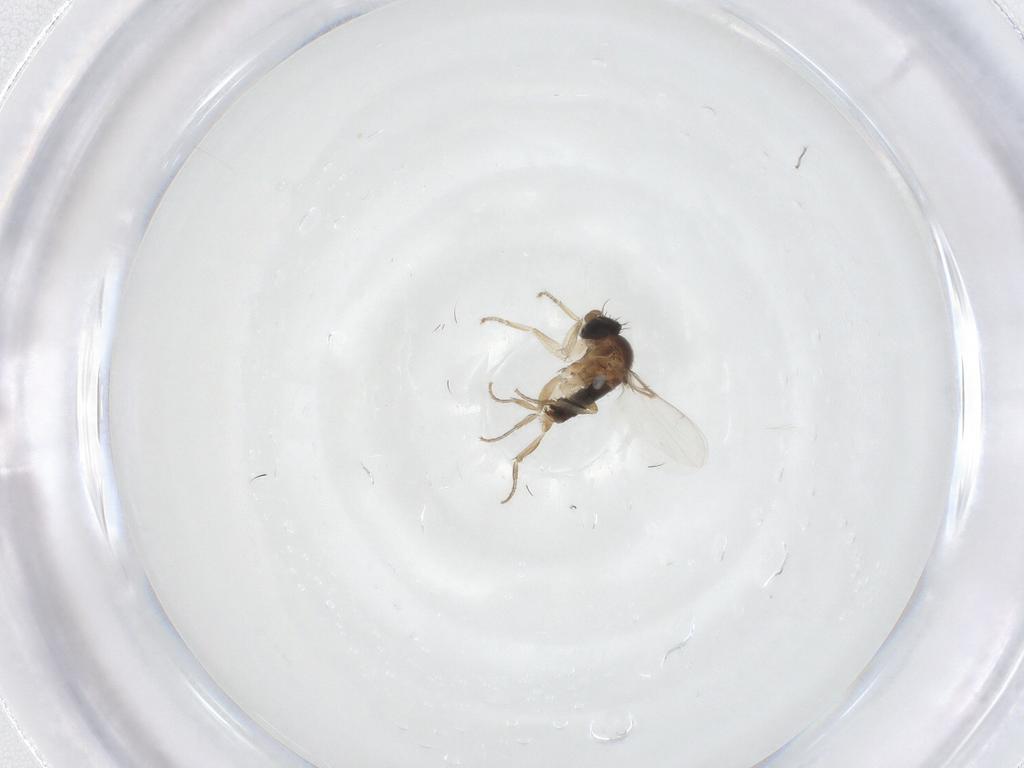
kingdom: Animalia
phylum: Arthropoda
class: Insecta
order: Diptera
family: Phoridae
